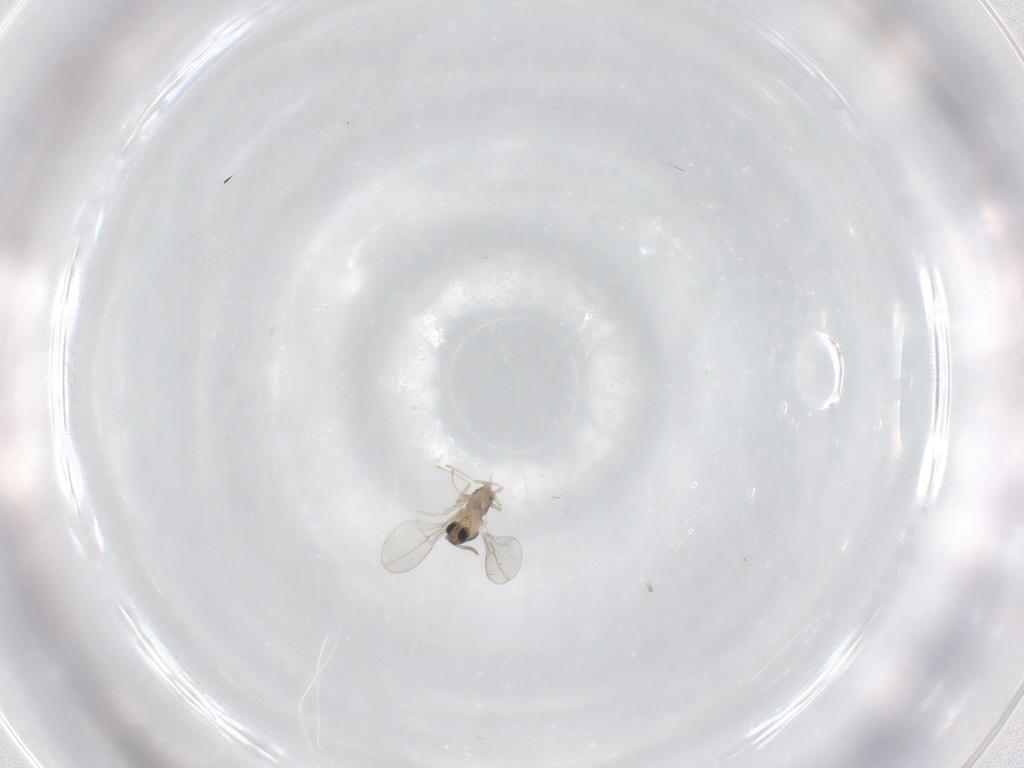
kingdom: Animalia
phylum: Arthropoda
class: Insecta
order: Diptera
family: Cecidomyiidae
